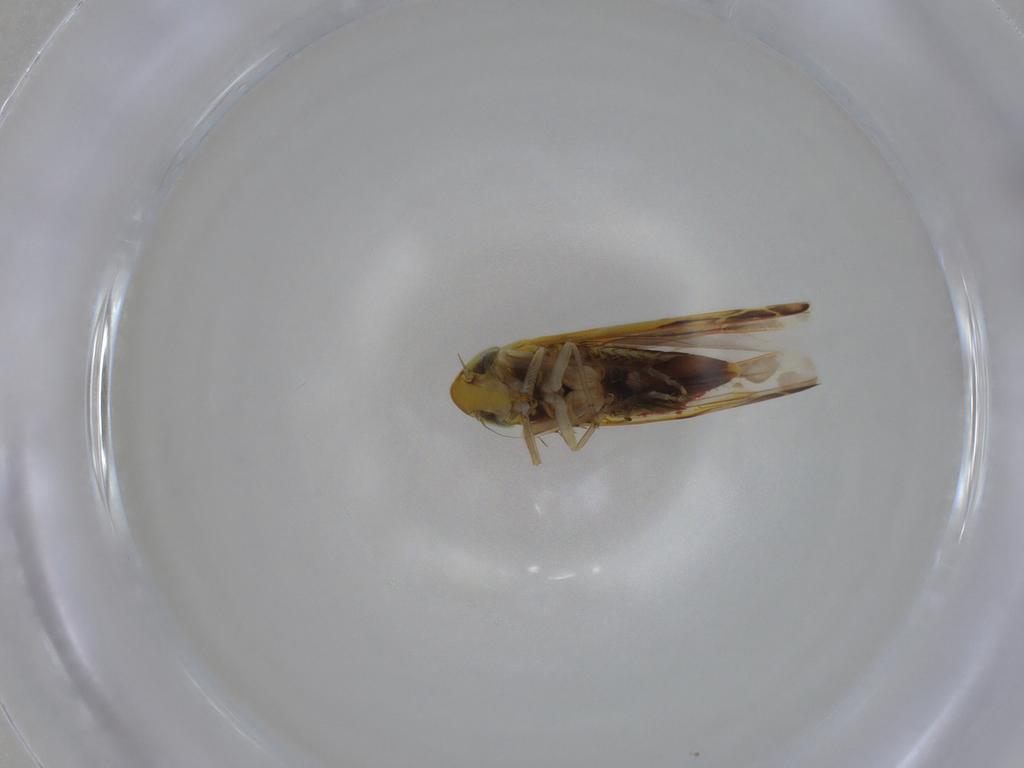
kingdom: Animalia
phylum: Arthropoda
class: Insecta
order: Hemiptera
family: Cicadellidae
